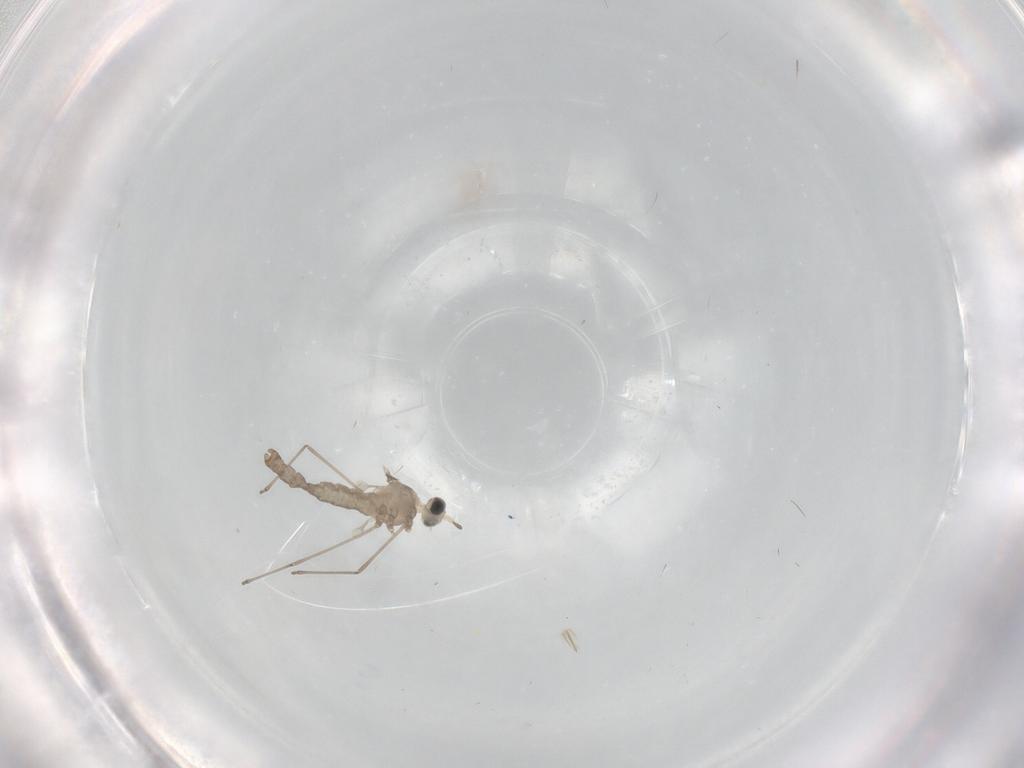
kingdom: Animalia
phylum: Arthropoda
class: Insecta
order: Diptera
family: Cecidomyiidae
